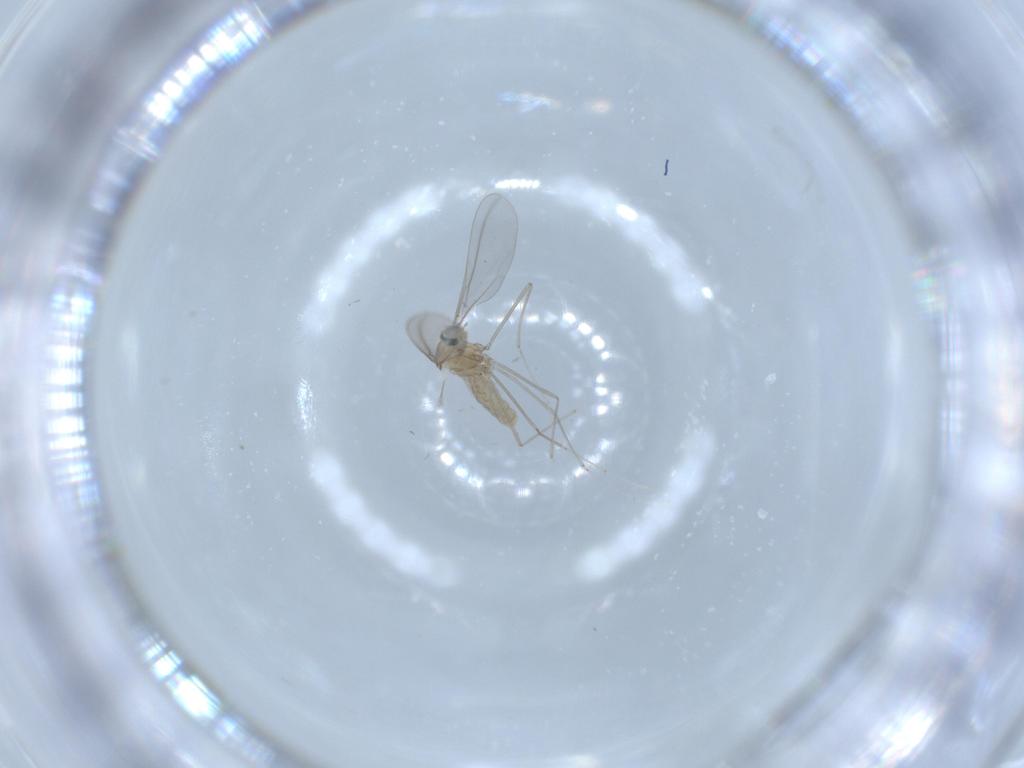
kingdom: Animalia
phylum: Arthropoda
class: Insecta
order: Diptera
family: Cecidomyiidae
